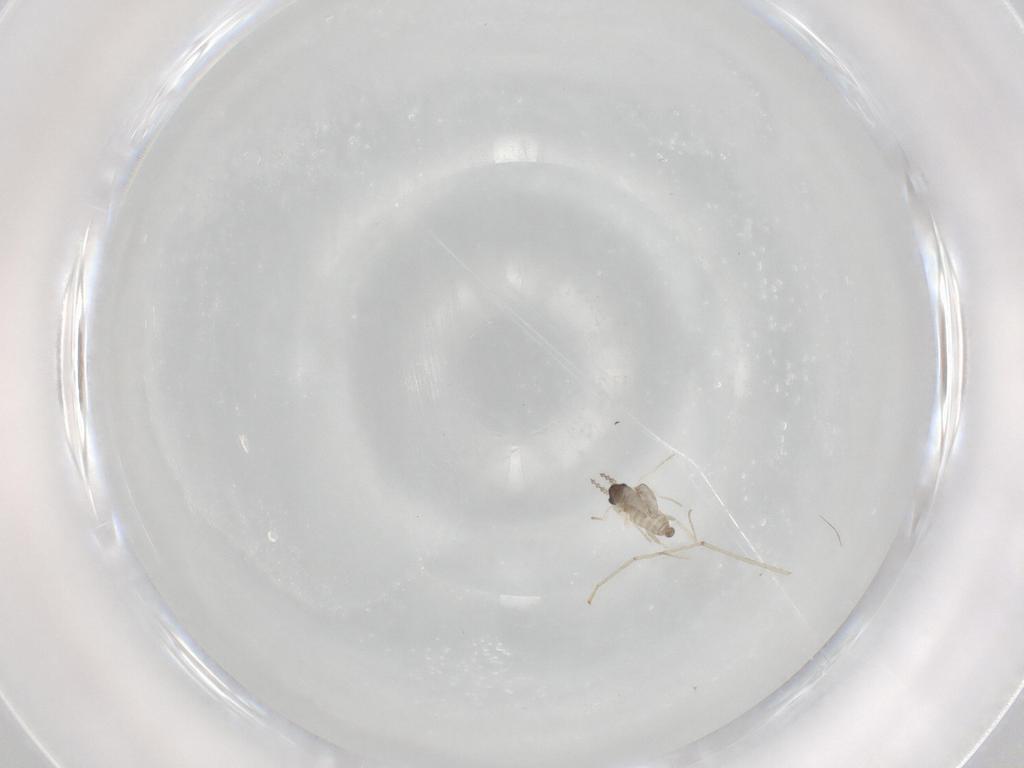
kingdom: Animalia
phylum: Arthropoda
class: Insecta
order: Diptera
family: Cecidomyiidae
